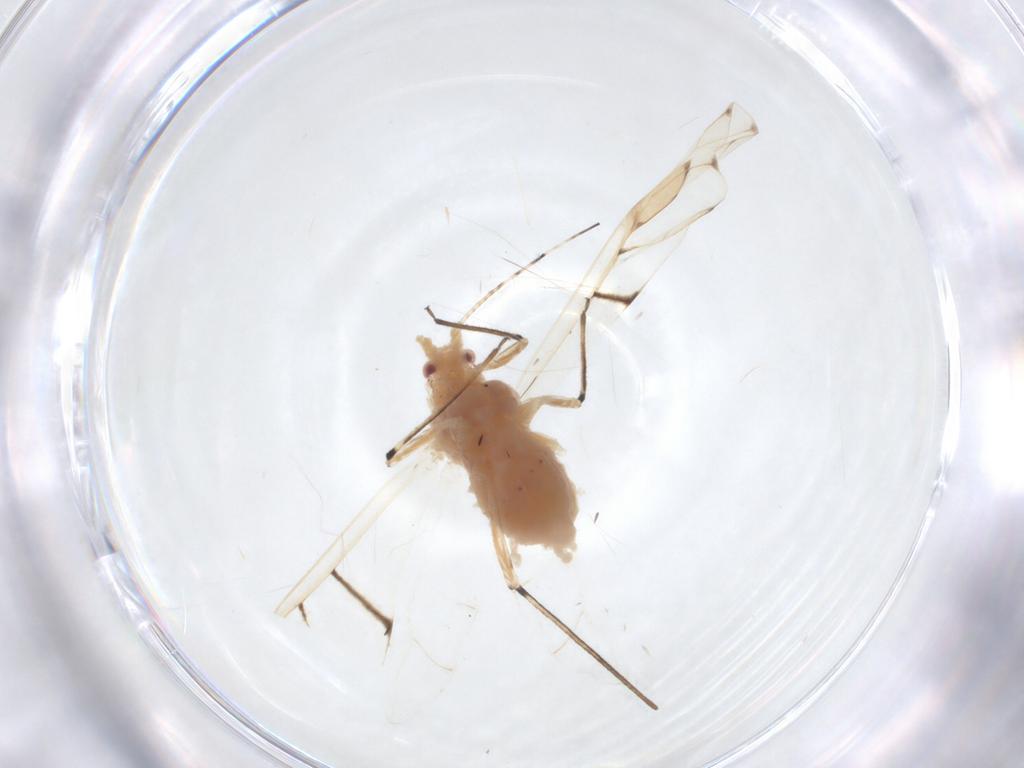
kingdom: Animalia
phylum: Arthropoda
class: Insecta
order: Hemiptera
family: Aphididae
